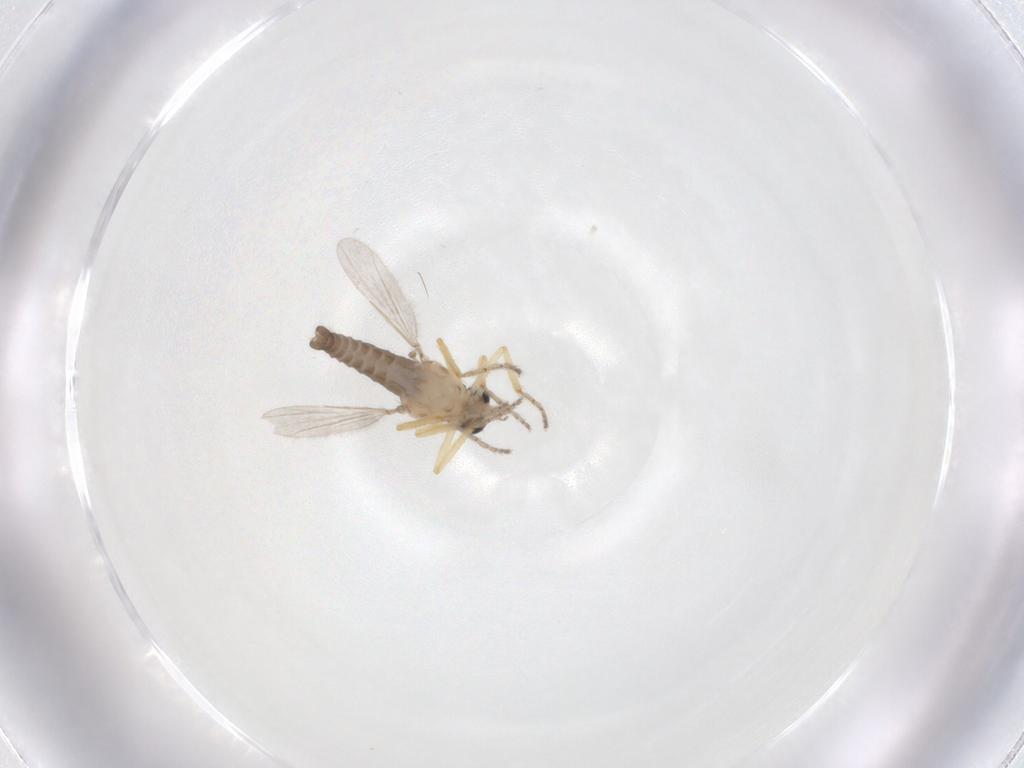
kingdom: Animalia
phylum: Arthropoda
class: Insecta
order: Diptera
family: Ceratopogonidae
